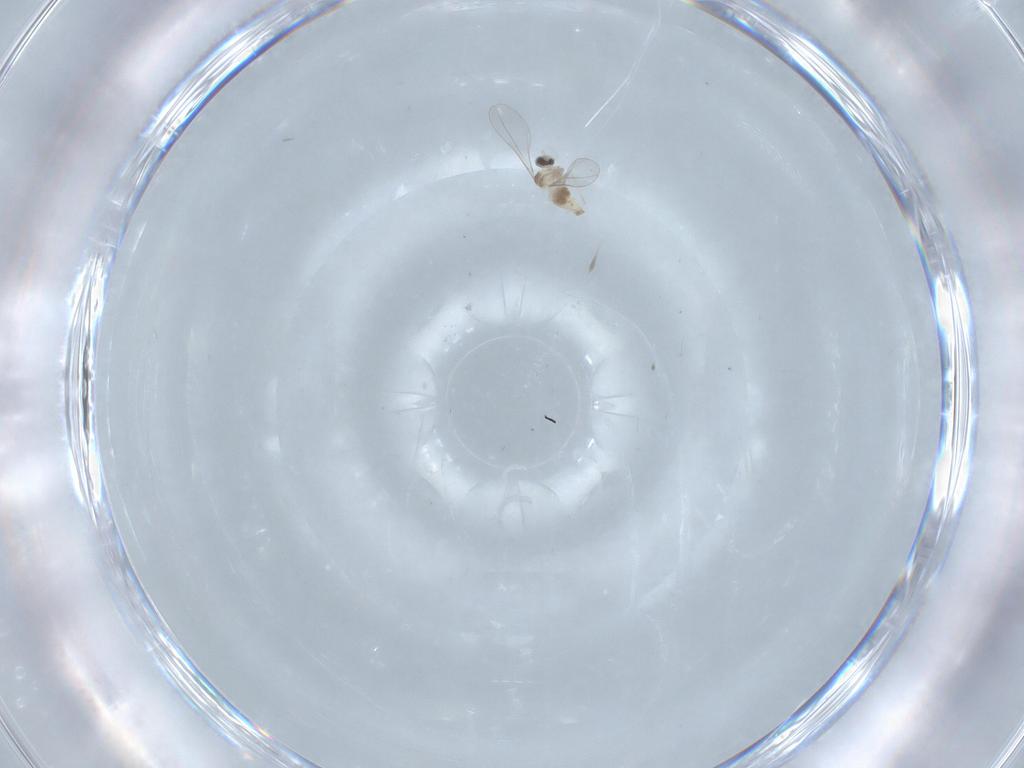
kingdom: Animalia
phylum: Arthropoda
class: Insecta
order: Diptera
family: Cecidomyiidae
